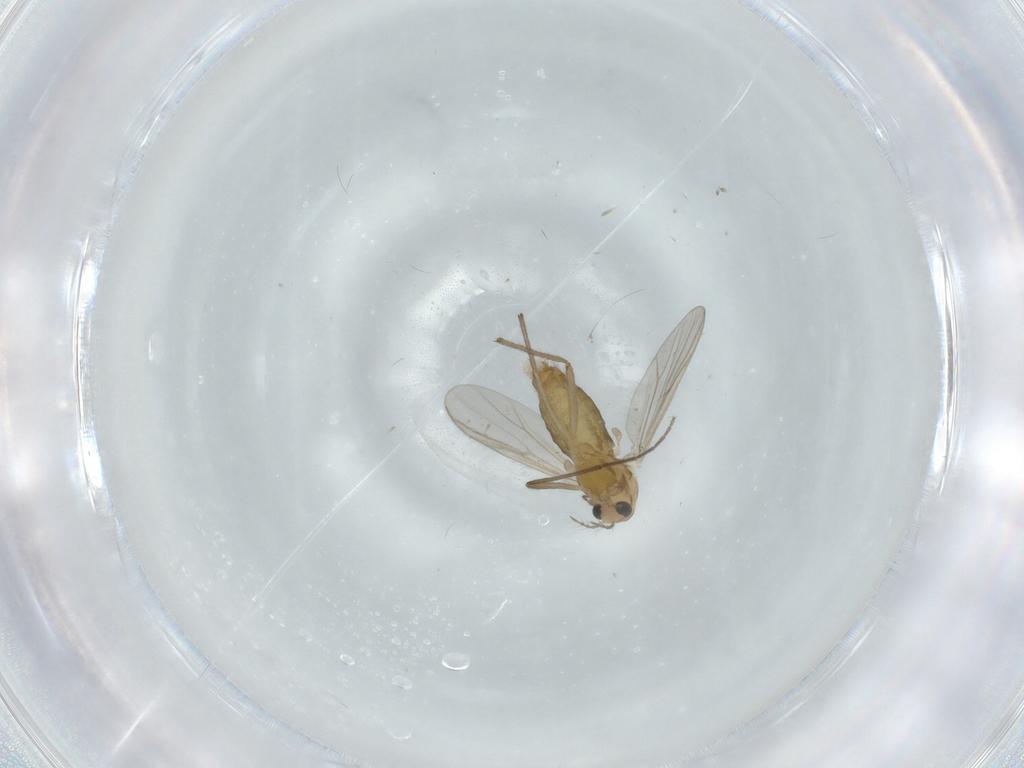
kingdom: Animalia
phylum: Arthropoda
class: Insecta
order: Diptera
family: Chironomidae
